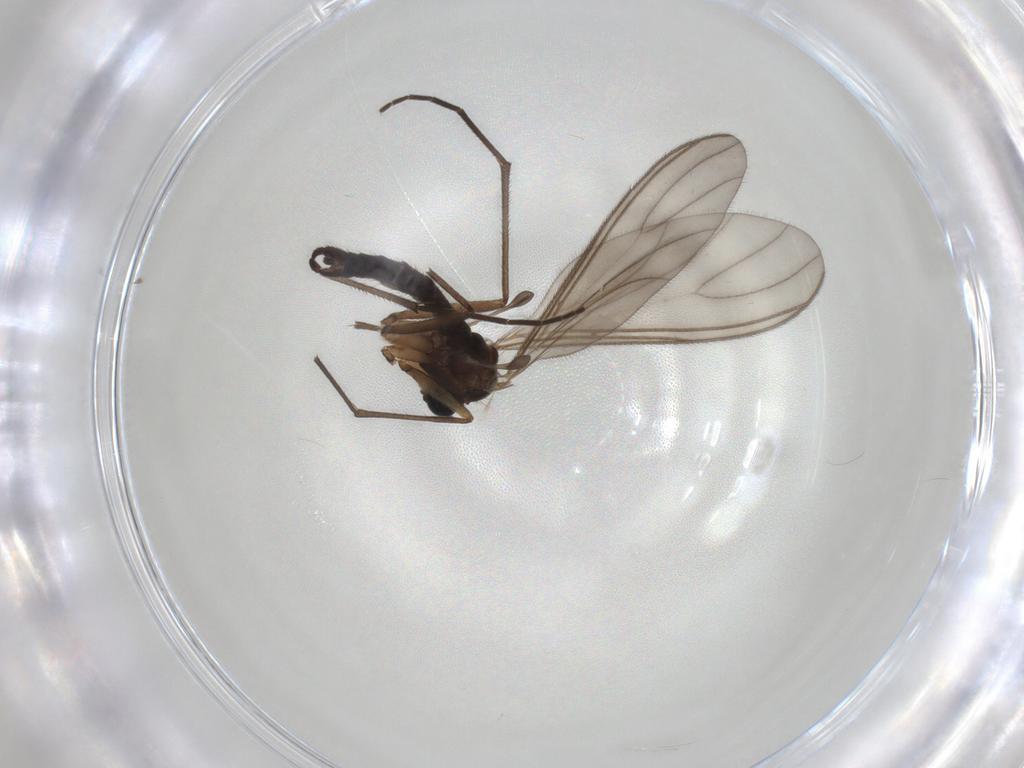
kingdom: Animalia
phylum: Arthropoda
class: Insecta
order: Diptera
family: Sciaridae
